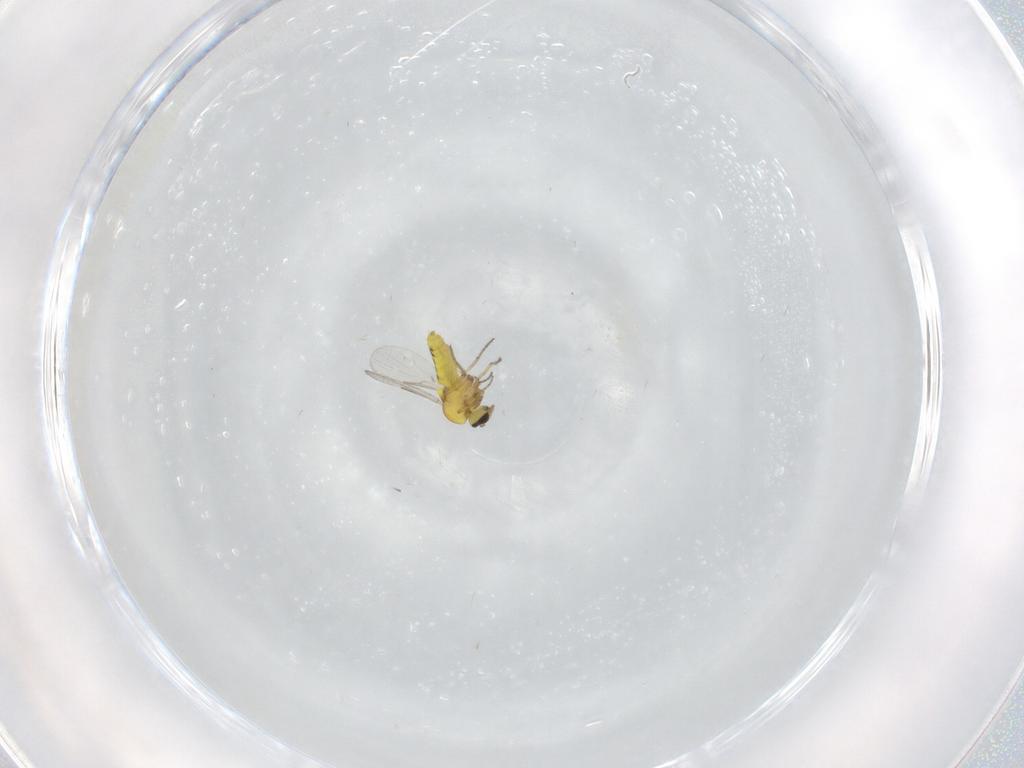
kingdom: Animalia
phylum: Arthropoda
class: Insecta
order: Diptera
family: Ceratopogonidae
